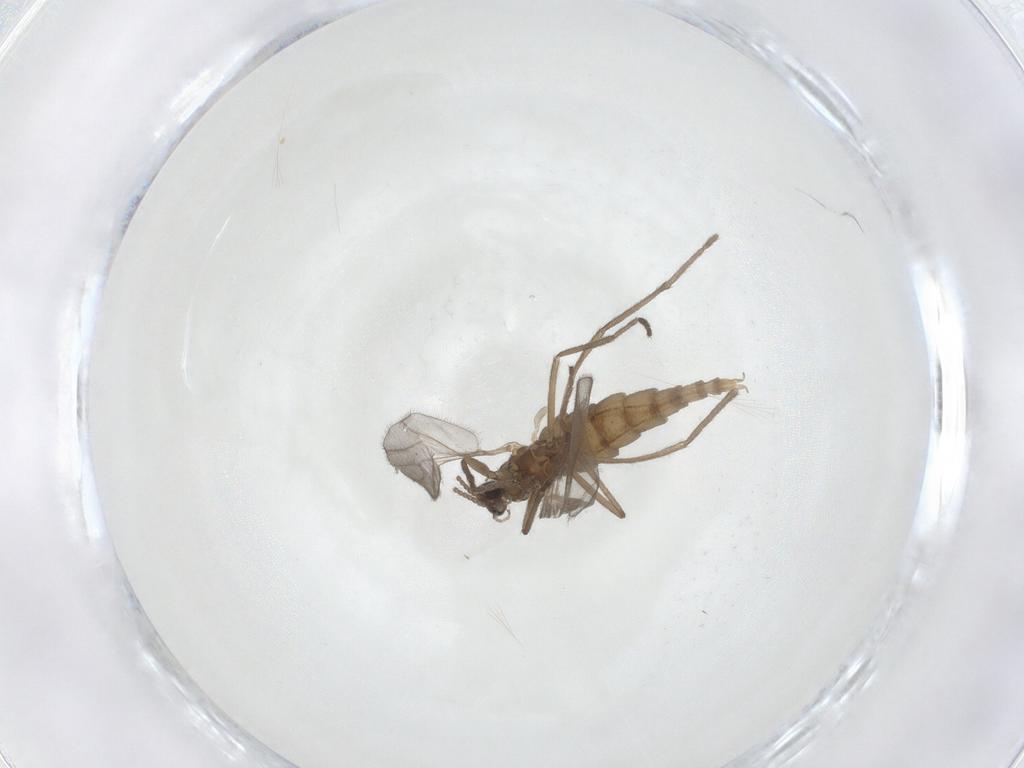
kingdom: Animalia
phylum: Arthropoda
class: Insecta
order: Diptera
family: Cecidomyiidae
